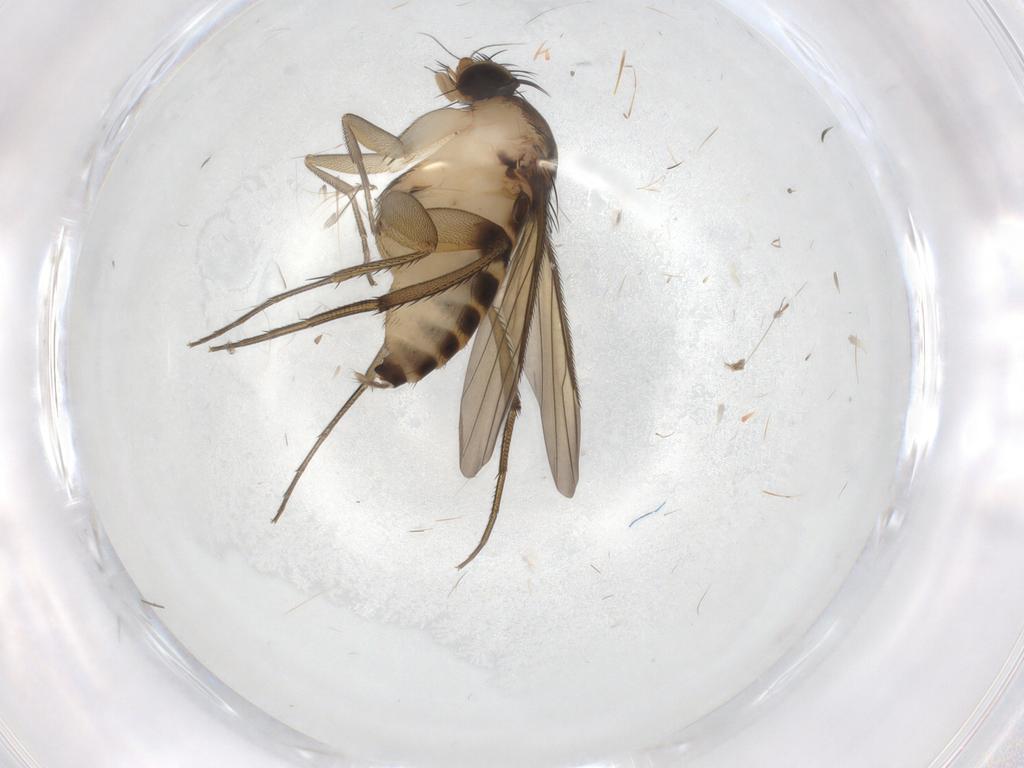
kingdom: Animalia
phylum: Arthropoda
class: Insecta
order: Diptera
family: Phoridae
